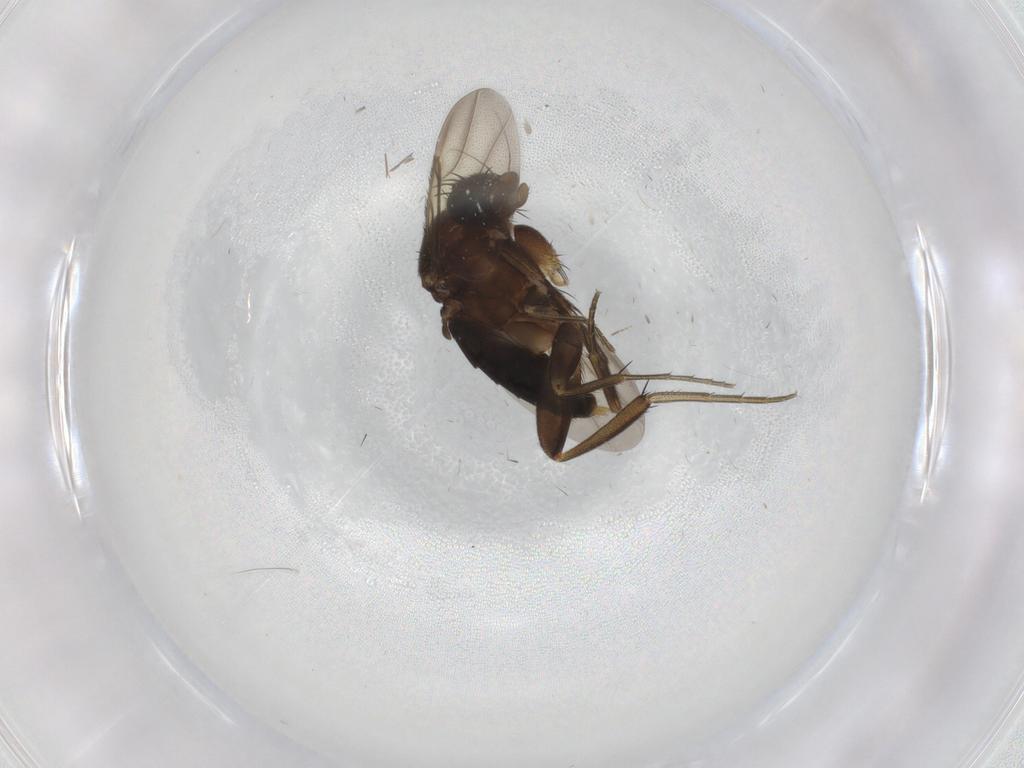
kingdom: Animalia
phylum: Arthropoda
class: Insecta
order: Diptera
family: Phoridae
